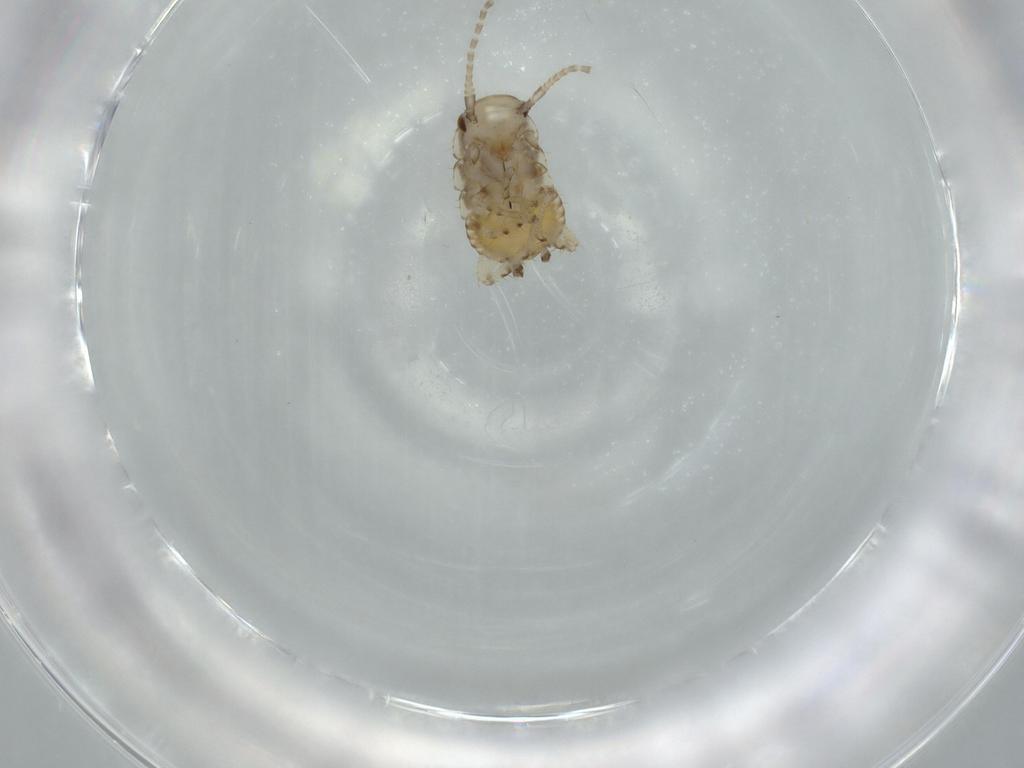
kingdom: Animalia
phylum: Arthropoda
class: Insecta
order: Blattodea
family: Ectobiidae
